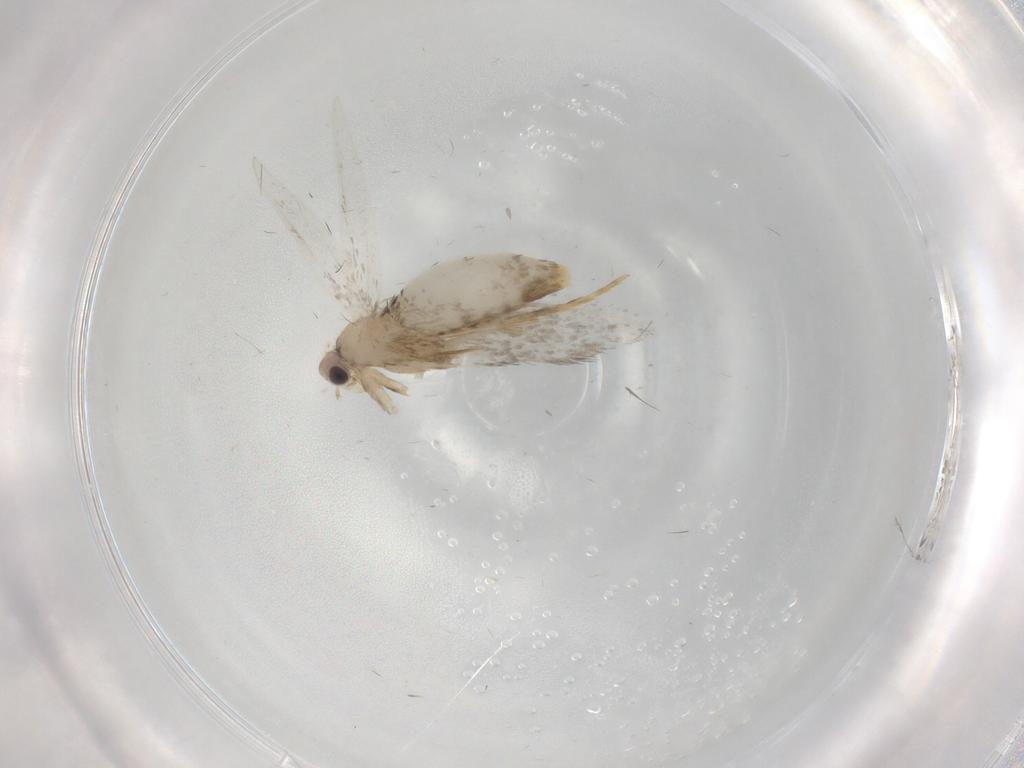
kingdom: Animalia
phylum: Arthropoda
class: Insecta
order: Lepidoptera
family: Tineidae
